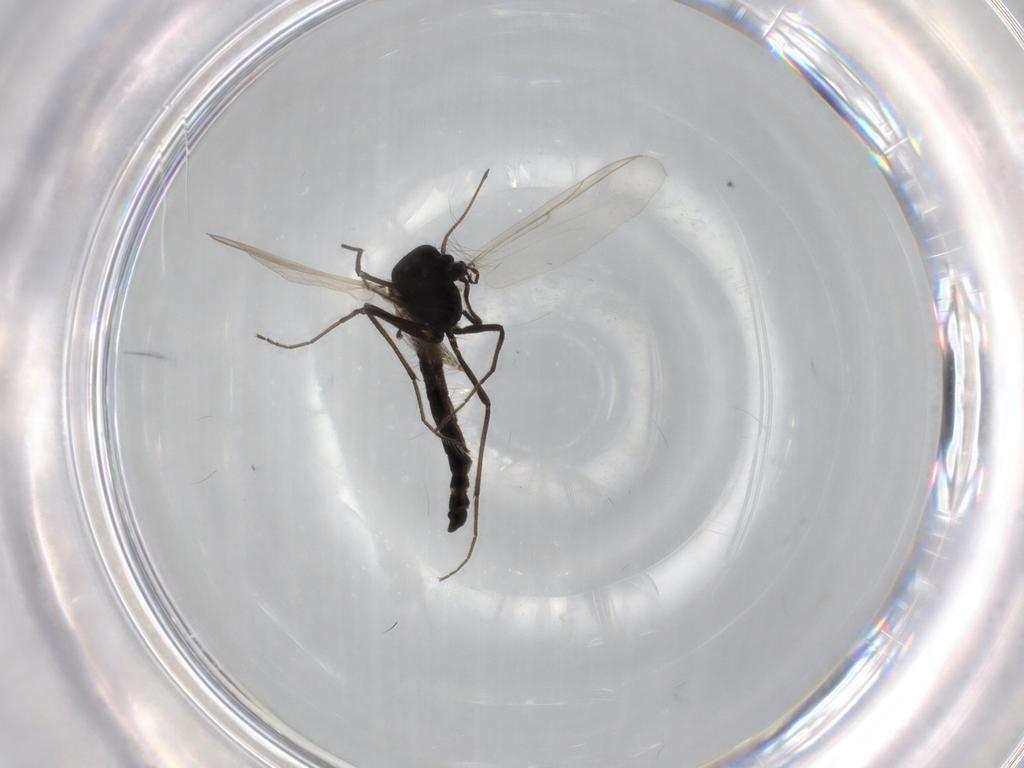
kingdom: Animalia
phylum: Arthropoda
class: Insecta
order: Diptera
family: Chironomidae
